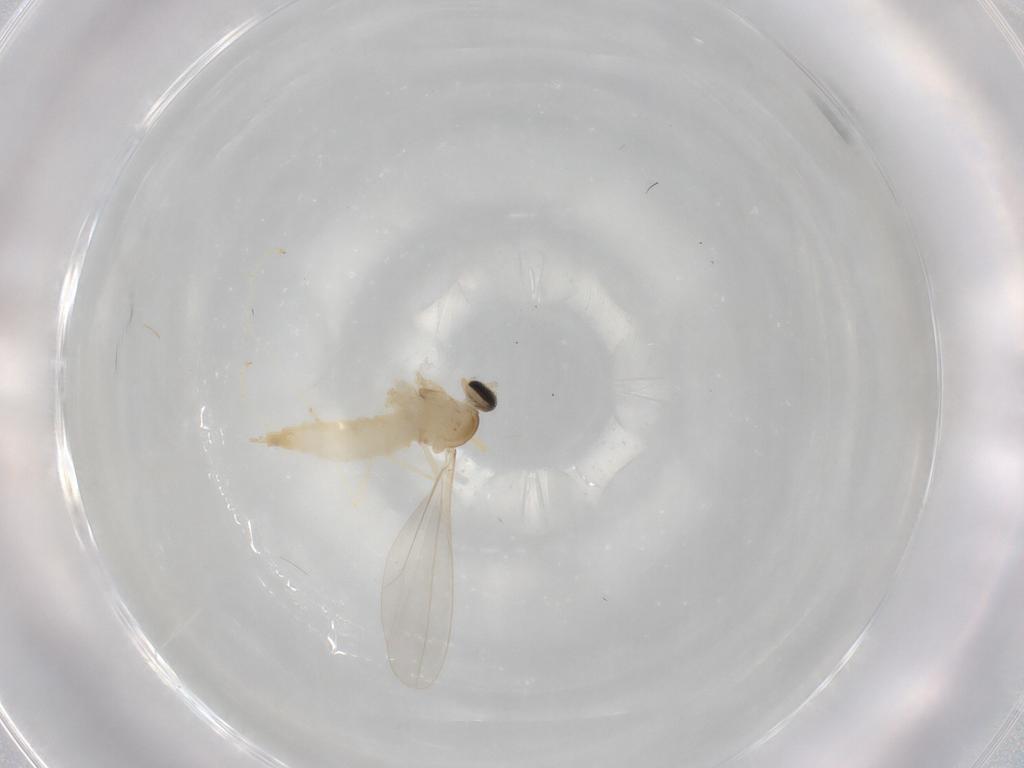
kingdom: Animalia
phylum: Arthropoda
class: Insecta
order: Diptera
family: Cecidomyiidae
